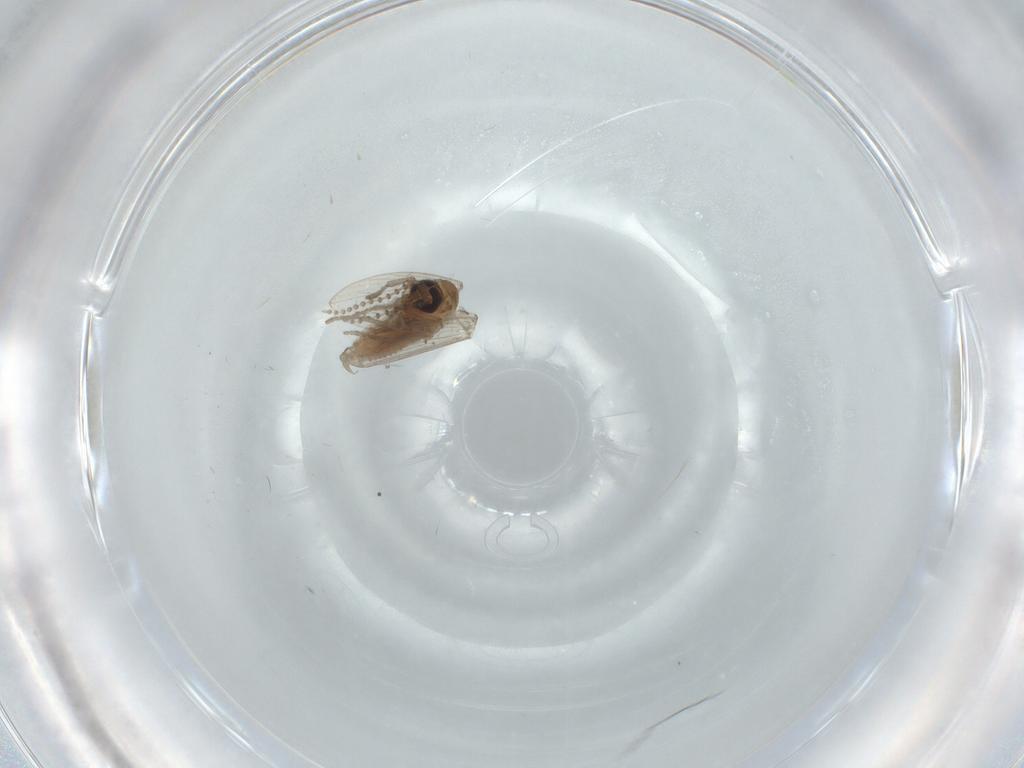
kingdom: Animalia
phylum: Arthropoda
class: Insecta
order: Diptera
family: Psychodidae
